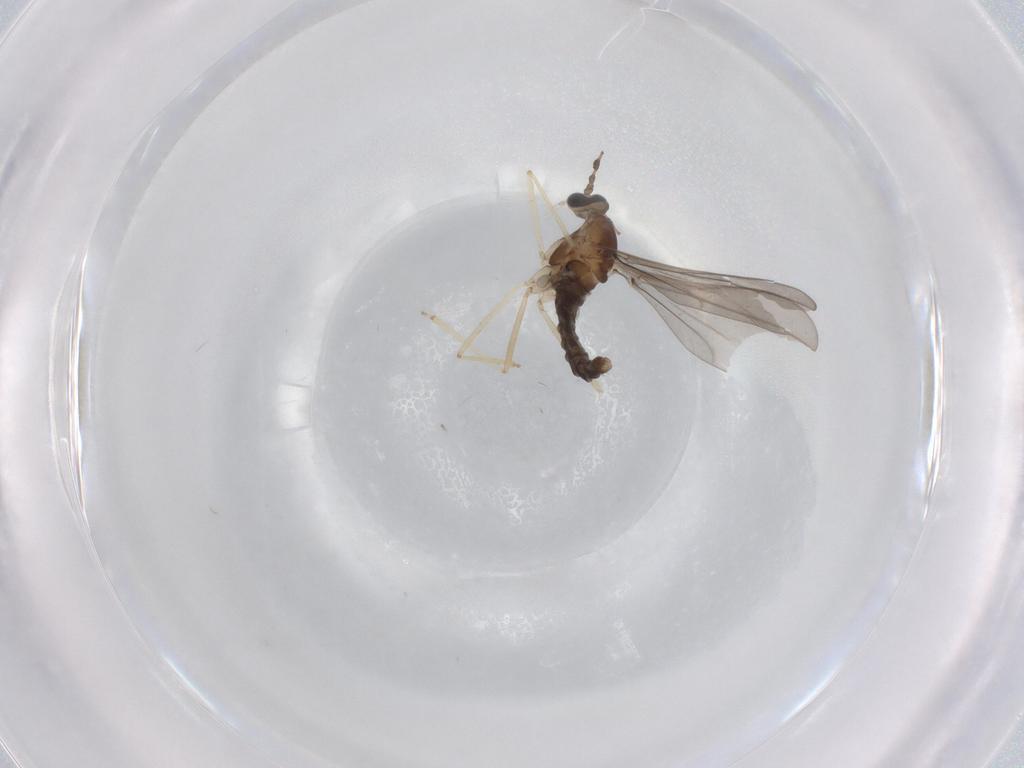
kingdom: Animalia
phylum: Arthropoda
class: Insecta
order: Diptera
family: Cecidomyiidae
